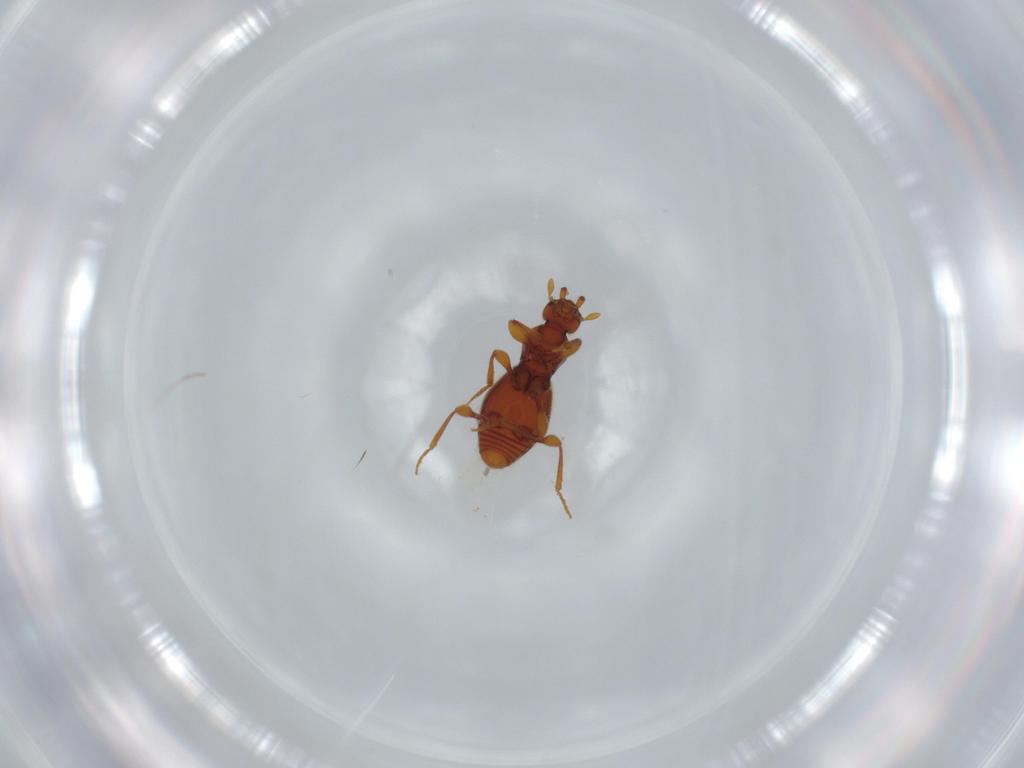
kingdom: Animalia
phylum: Arthropoda
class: Insecta
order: Coleoptera
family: Staphylinidae
